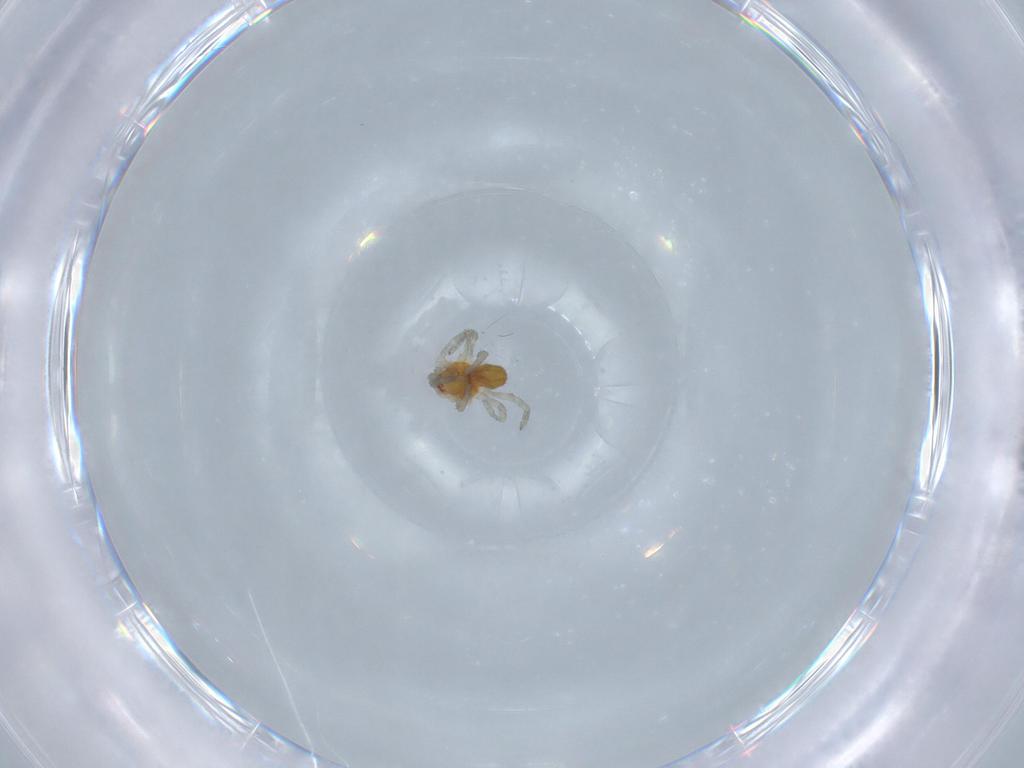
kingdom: Animalia
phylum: Arthropoda
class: Arachnida
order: Araneae
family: Dictynidae
